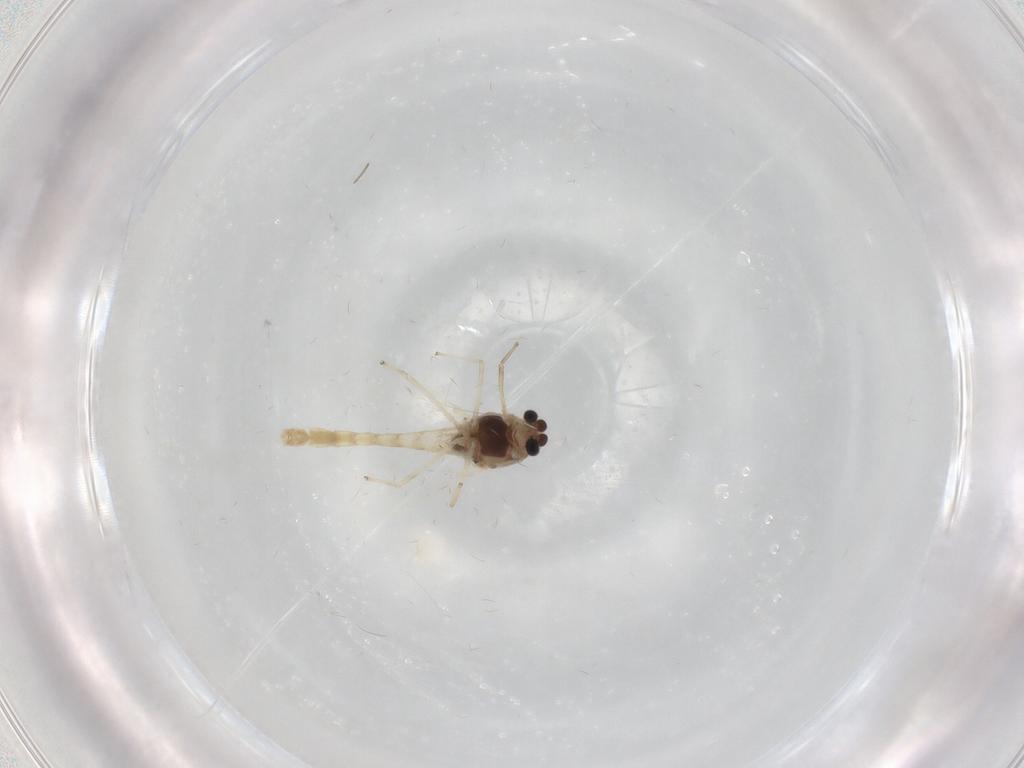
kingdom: Animalia
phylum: Arthropoda
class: Insecta
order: Diptera
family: Chironomidae
